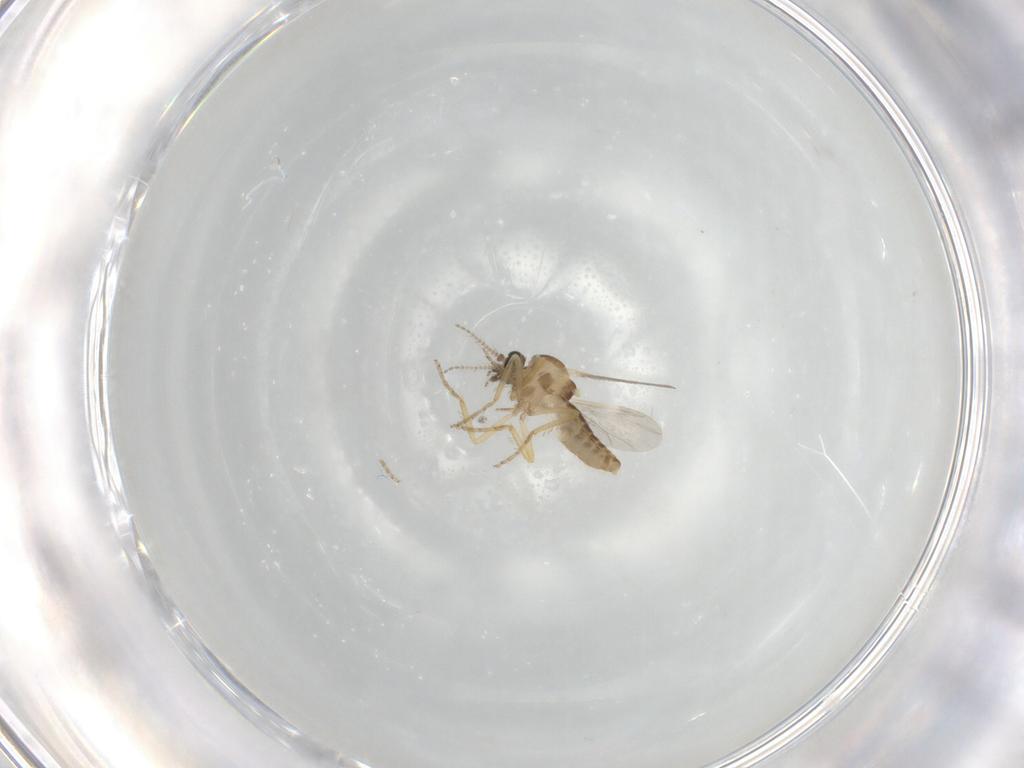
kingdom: Animalia
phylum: Arthropoda
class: Insecta
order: Diptera
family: Ceratopogonidae
